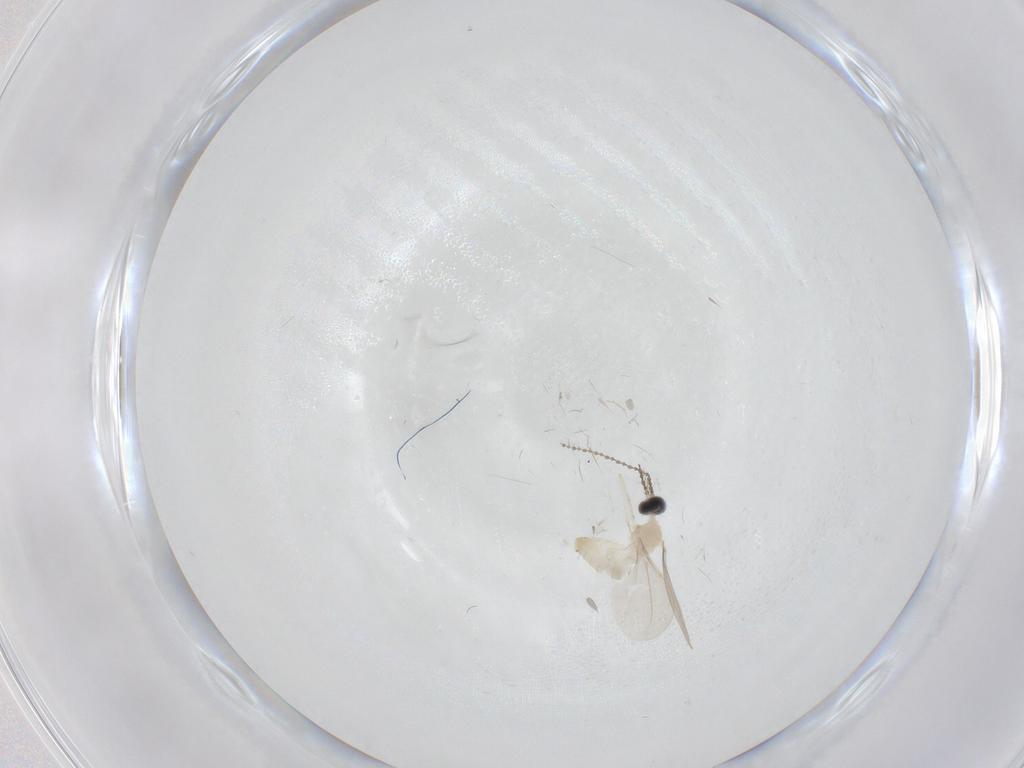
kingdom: Animalia
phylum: Arthropoda
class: Insecta
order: Diptera
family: Cecidomyiidae
